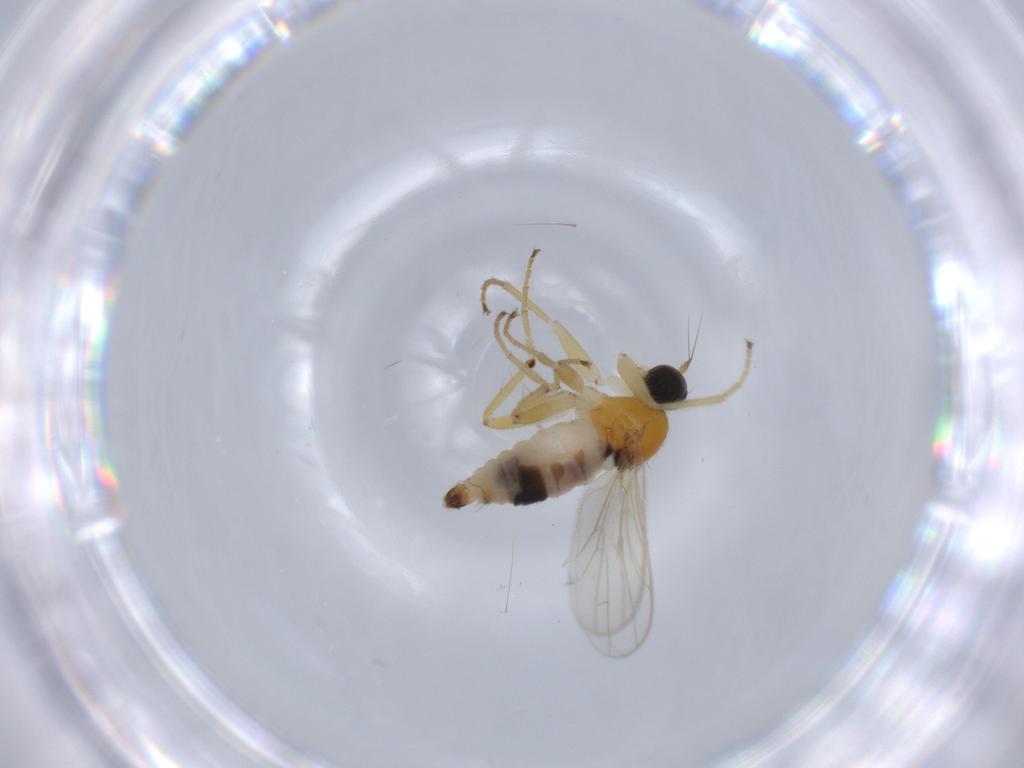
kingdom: Animalia
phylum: Arthropoda
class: Insecta
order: Diptera
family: Hybotidae
